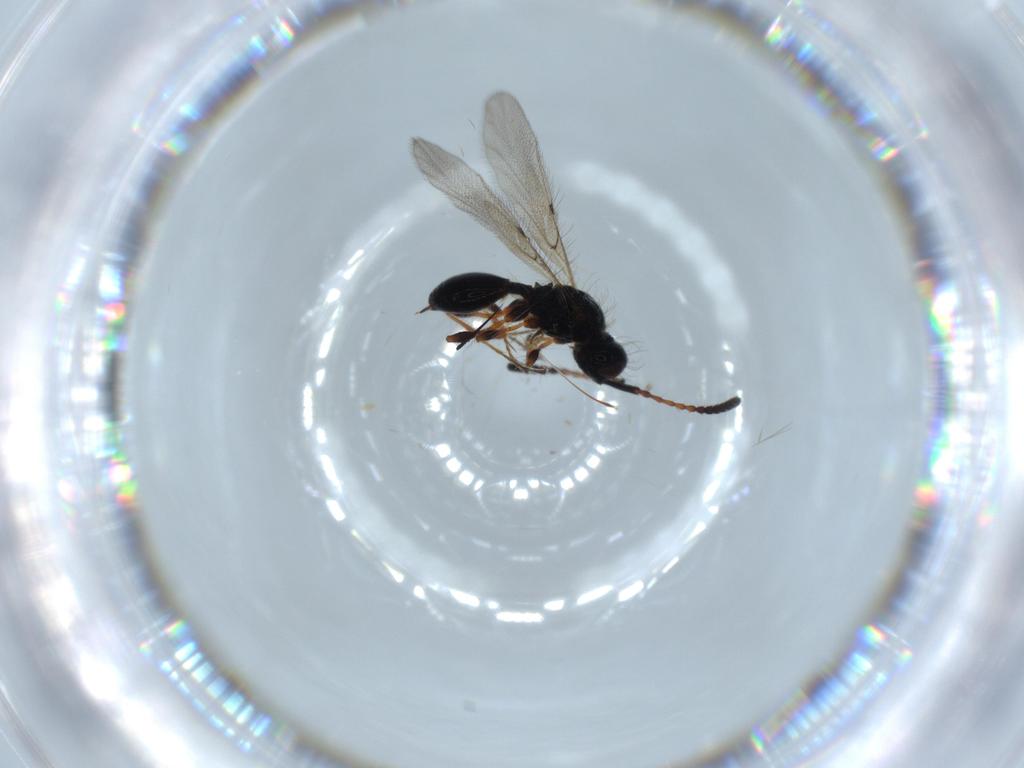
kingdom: Animalia
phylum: Arthropoda
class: Insecta
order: Hymenoptera
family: Diapriidae
